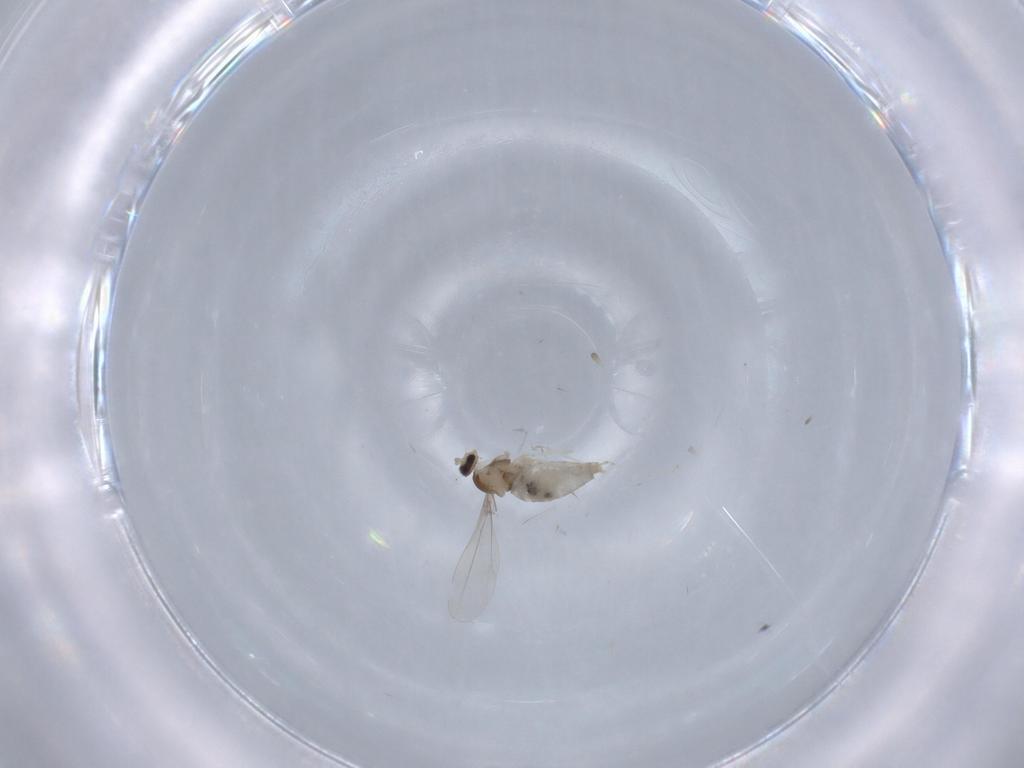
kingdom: Animalia
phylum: Arthropoda
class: Insecta
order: Diptera
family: Cecidomyiidae
